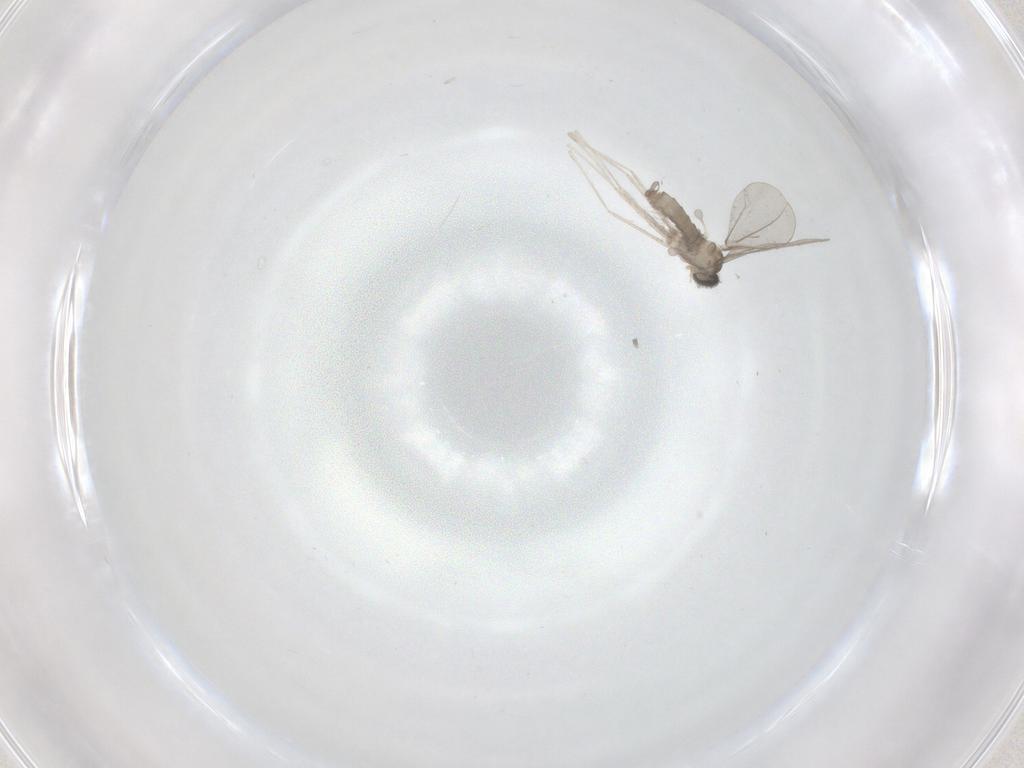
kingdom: Animalia
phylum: Arthropoda
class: Insecta
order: Diptera
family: Cecidomyiidae
